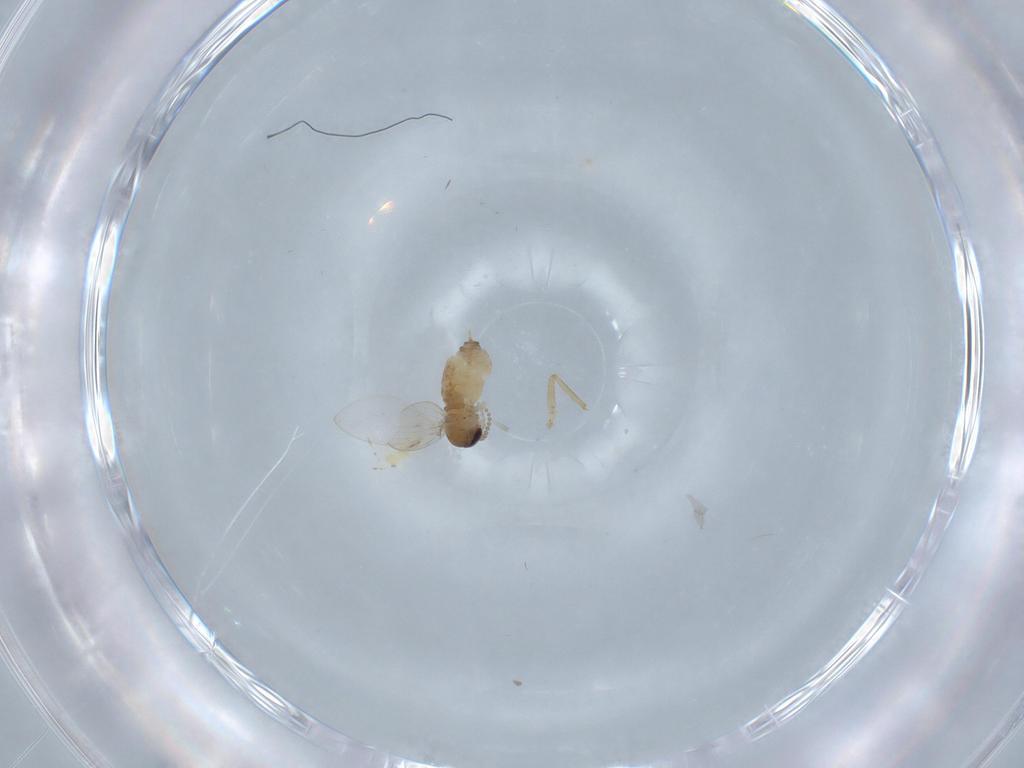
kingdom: Animalia
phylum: Arthropoda
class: Insecta
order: Diptera
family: Psychodidae
